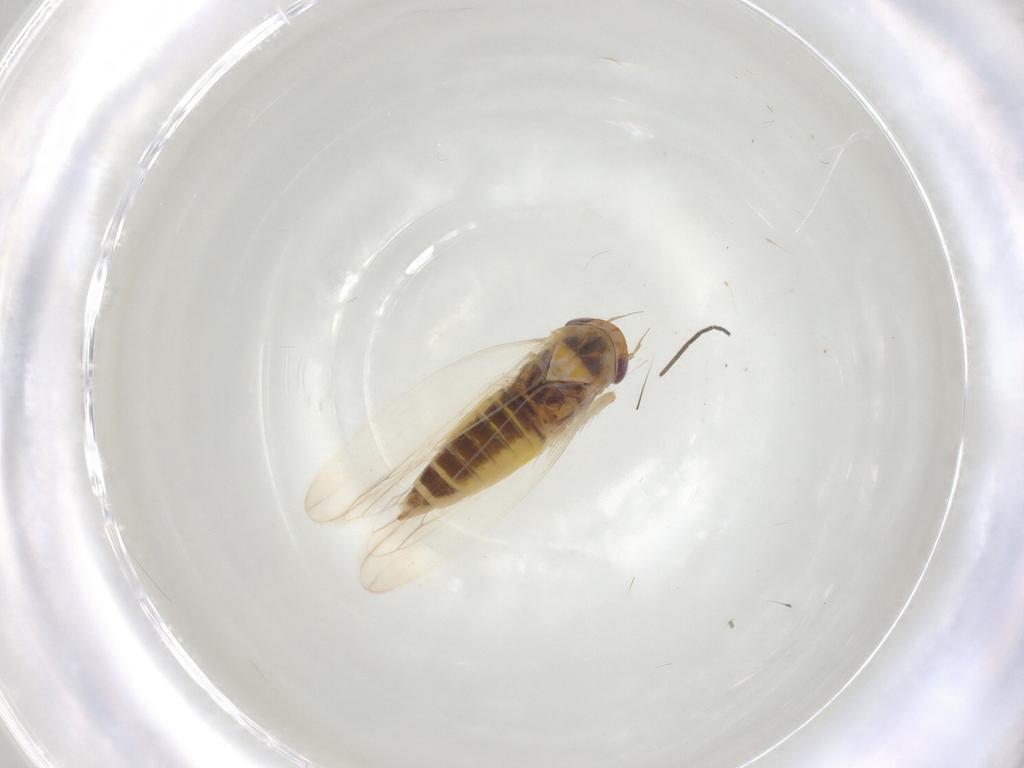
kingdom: Animalia
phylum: Arthropoda
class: Insecta
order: Hemiptera
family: Cicadellidae
